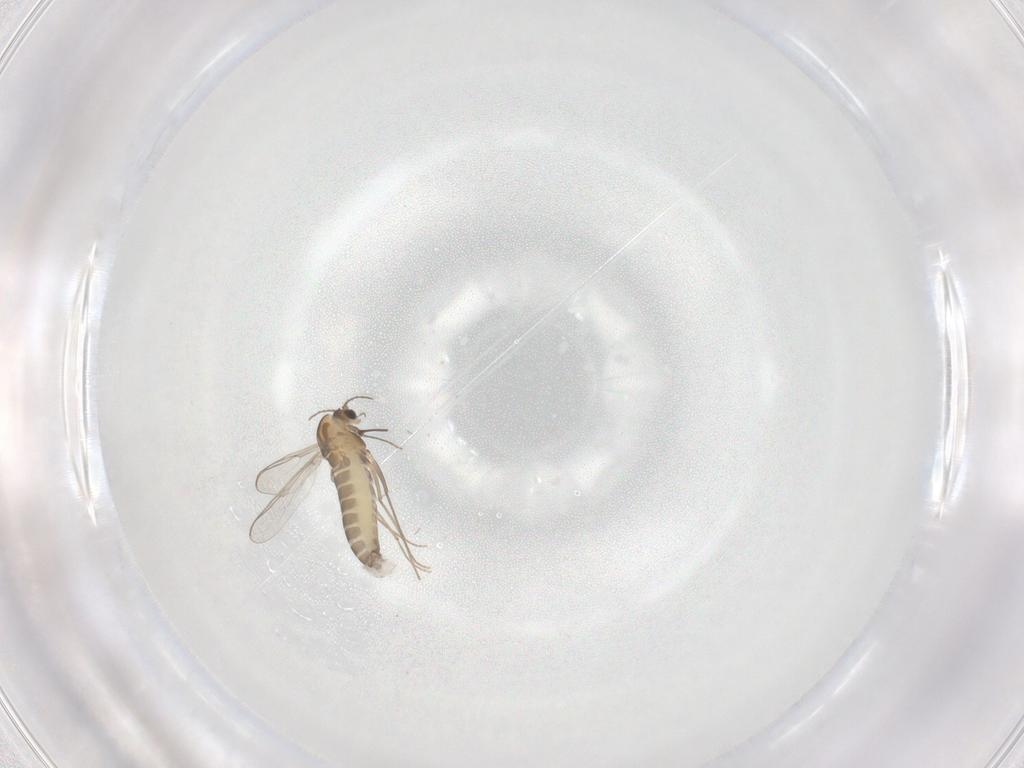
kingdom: Animalia
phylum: Arthropoda
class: Insecta
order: Diptera
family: Chironomidae
